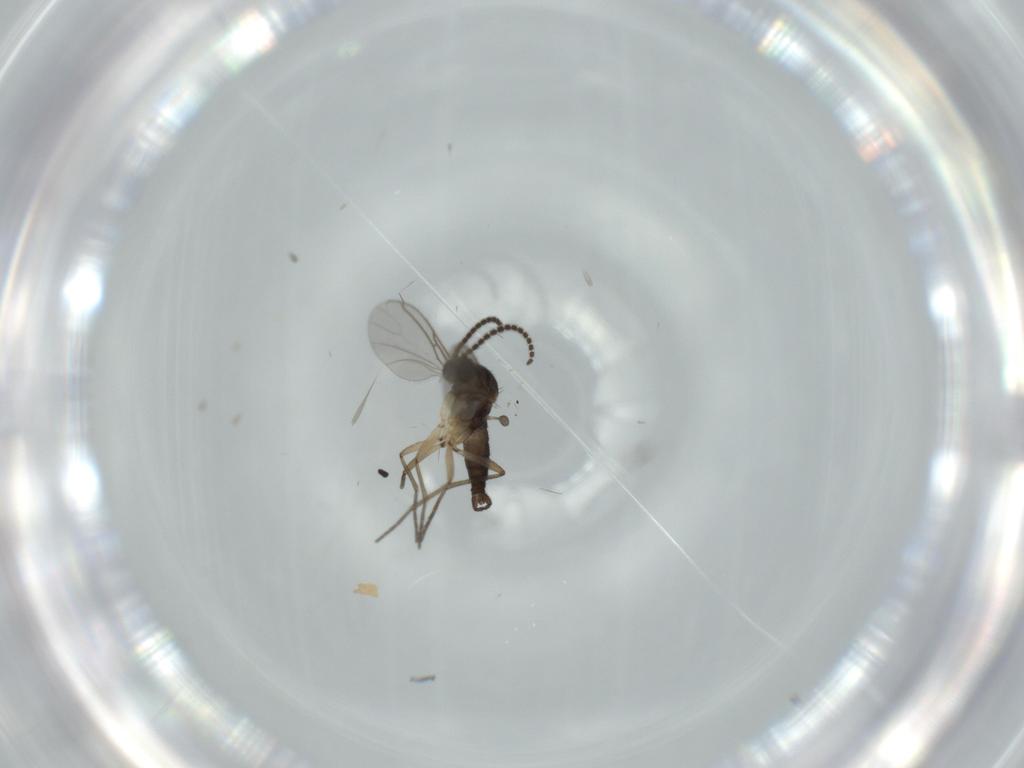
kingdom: Animalia
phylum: Arthropoda
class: Insecta
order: Diptera
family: Sciaridae
